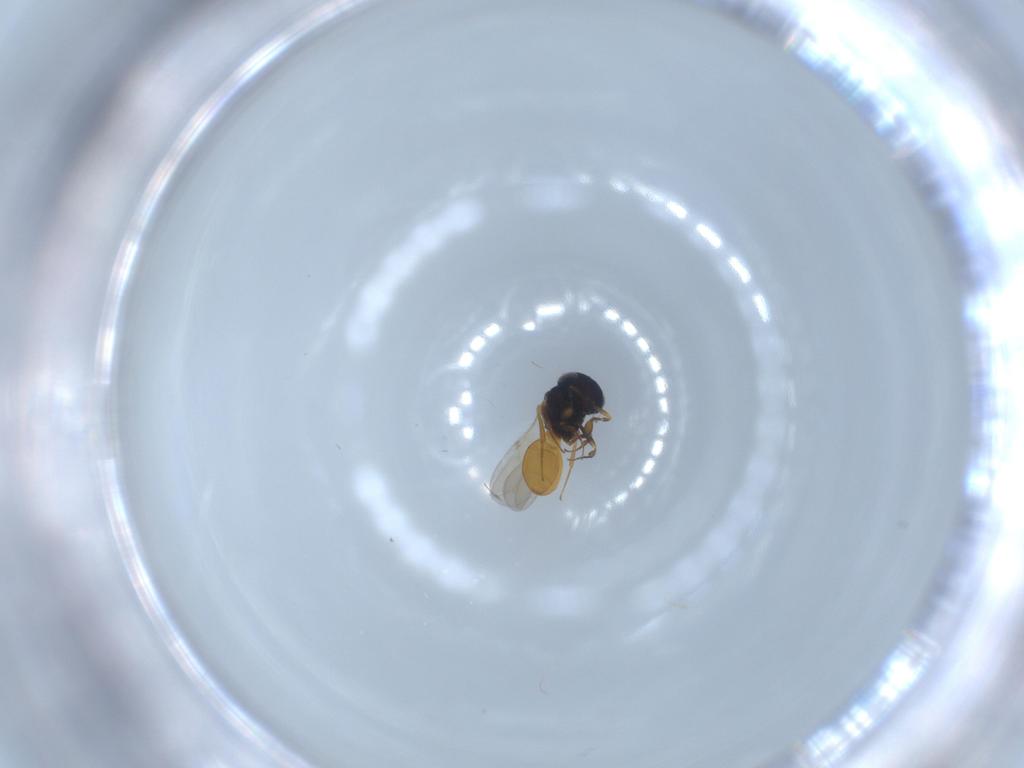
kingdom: Animalia
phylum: Arthropoda
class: Insecta
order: Hymenoptera
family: Scelionidae
